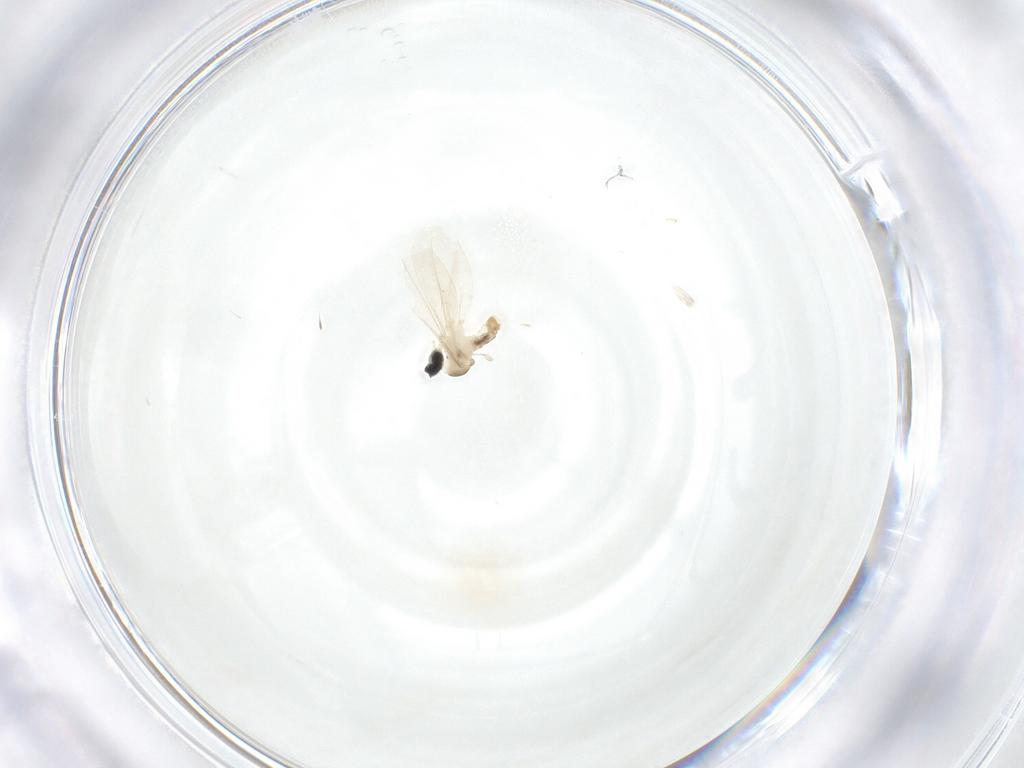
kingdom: Animalia
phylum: Arthropoda
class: Insecta
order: Diptera
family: Cecidomyiidae
